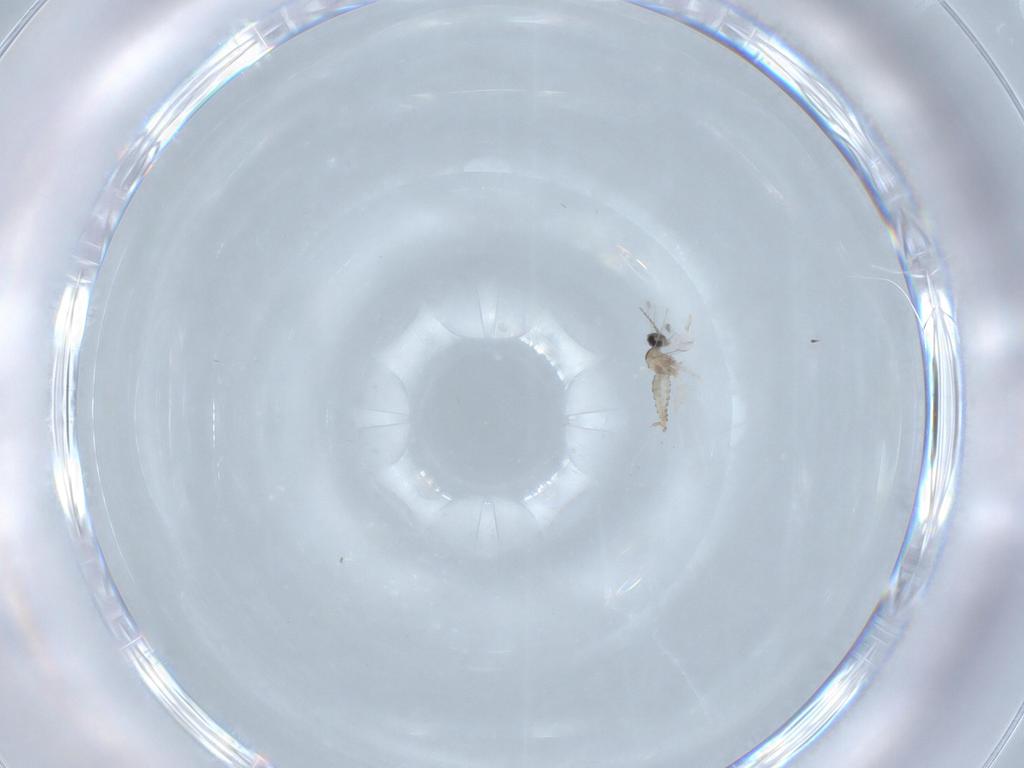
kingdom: Animalia
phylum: Arthropoda
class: Insecta
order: Diptera
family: Cecidomyiidae
